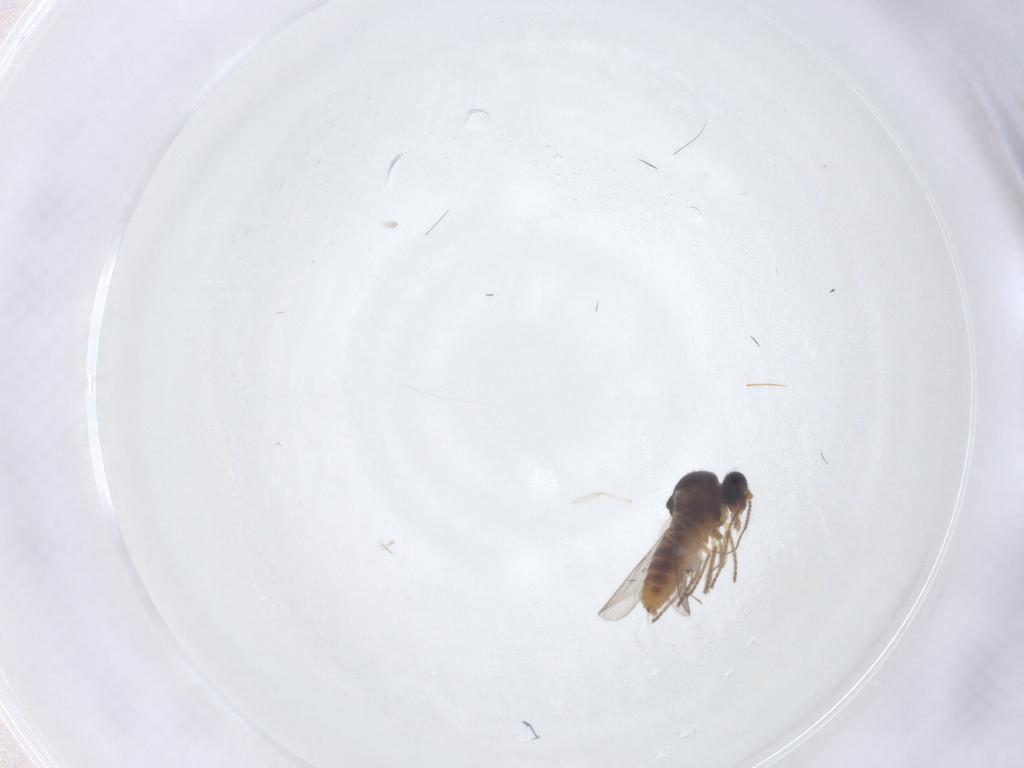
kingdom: Animalia
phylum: Arthropoda
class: Insecta
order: Diptera
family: Ceratopogonidae
